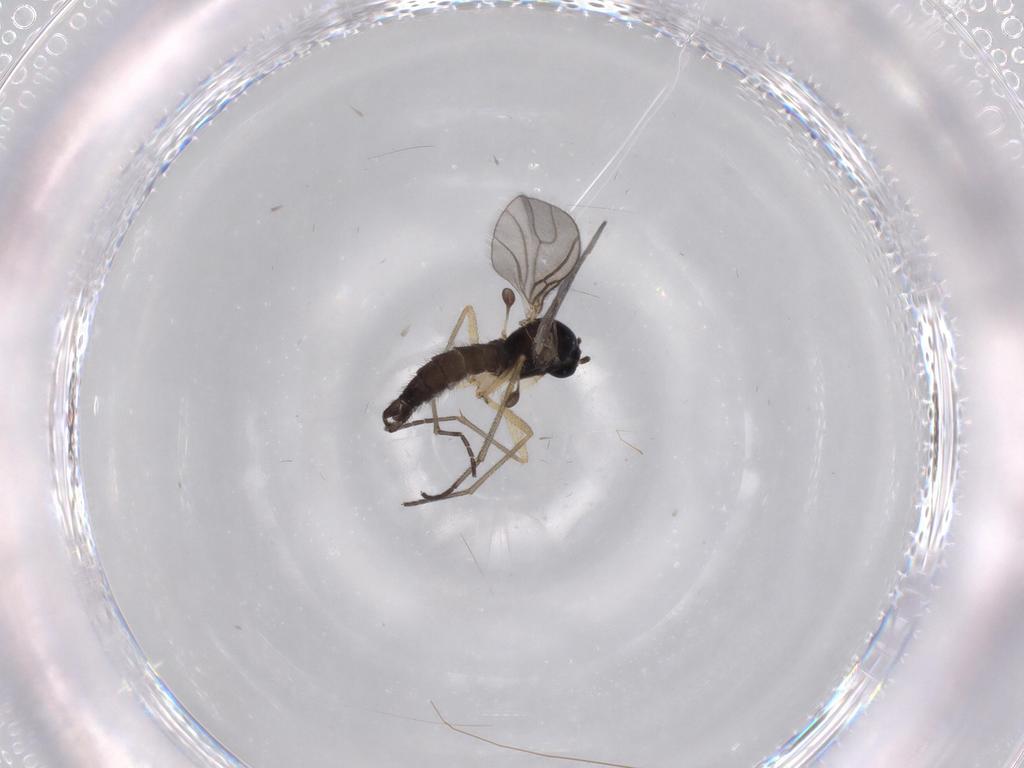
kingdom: Animalia
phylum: Arthropoda
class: Insecta
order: Diptera
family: Sciaridae
